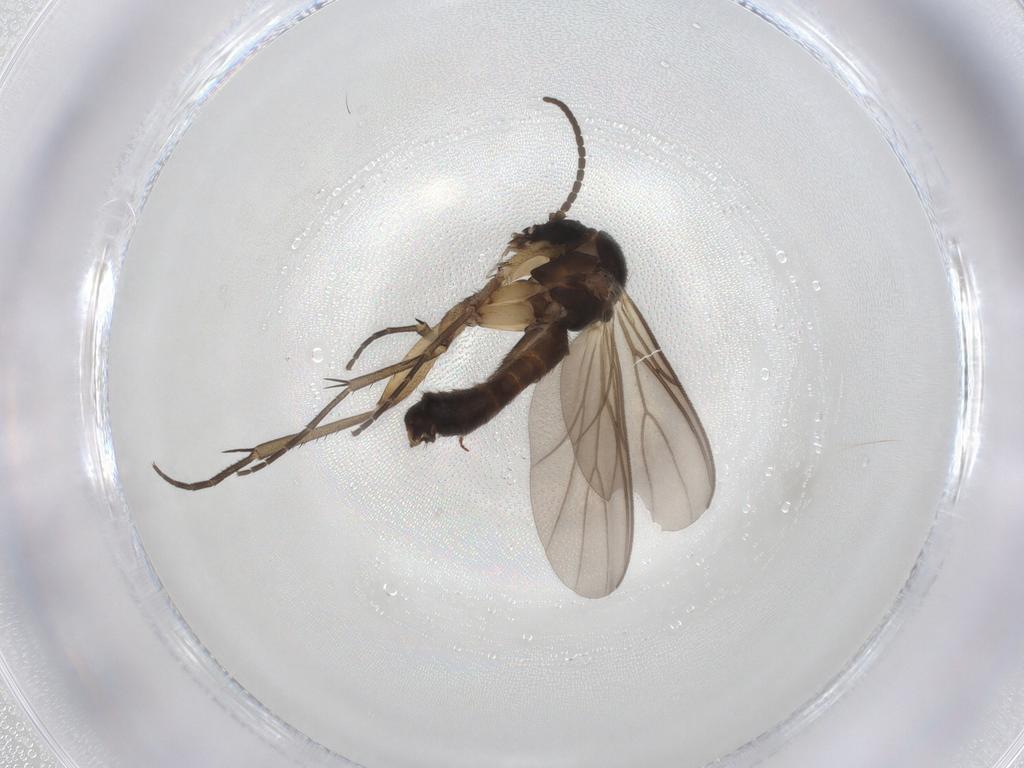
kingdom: Animalia
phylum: Arthropoda
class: Insecta
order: Diptera
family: Mycetophilidae
